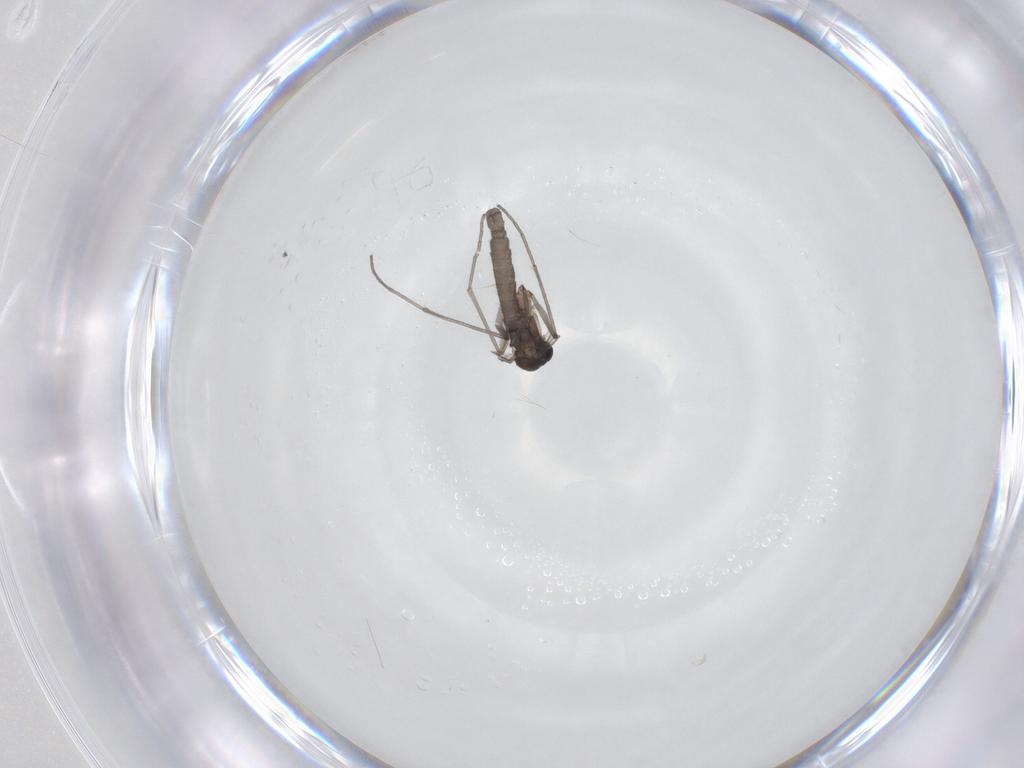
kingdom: Animalia
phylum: Arthropoda
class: Insecta
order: Diptera
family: Sciaridae
